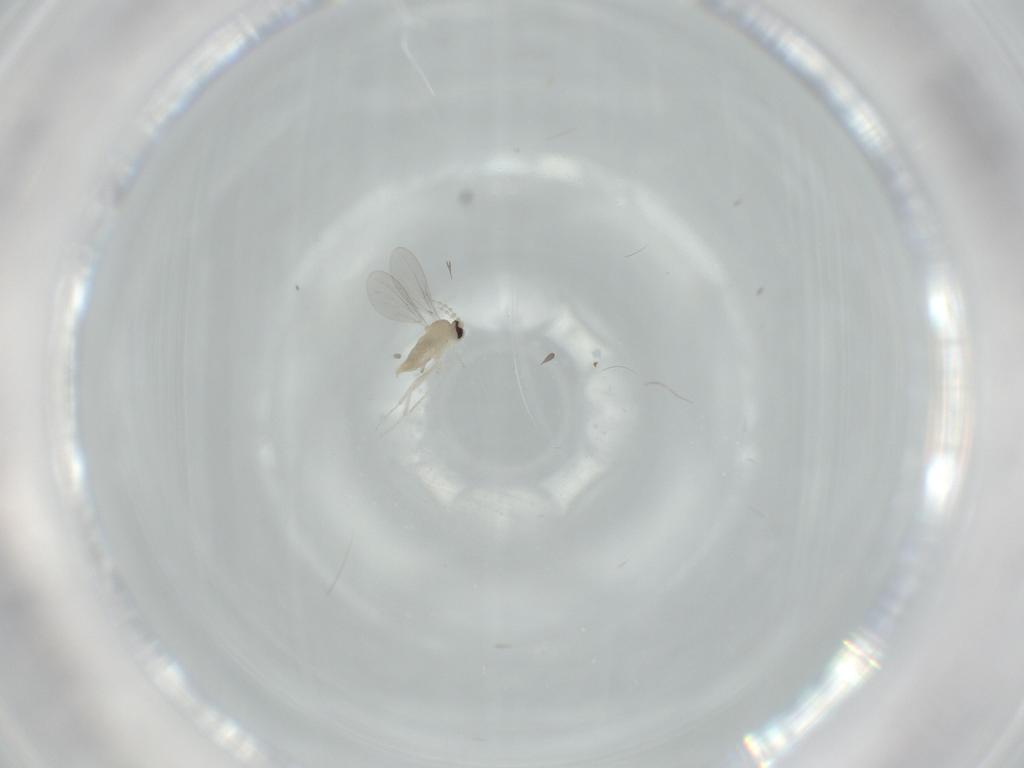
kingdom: Animalia
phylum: Arthropoda
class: Insecta
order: Diptera
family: Cecidomyiidae
